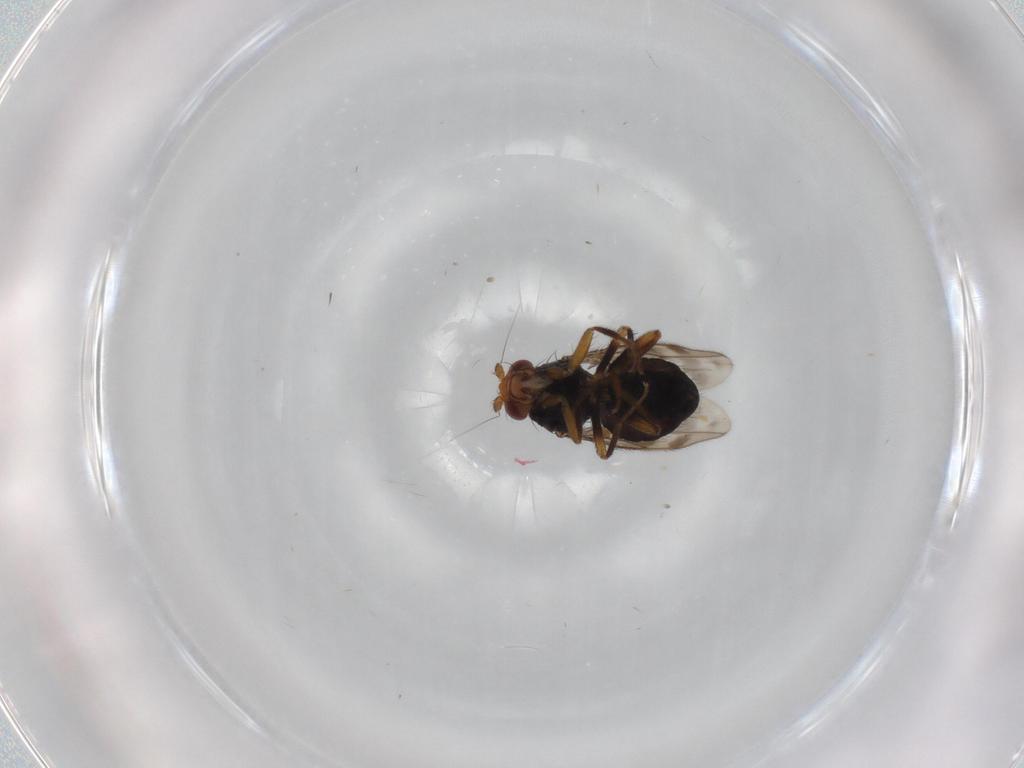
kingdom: Animalia
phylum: Arthropoda
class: Insecta
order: Diptera
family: Sphaeroceridae
